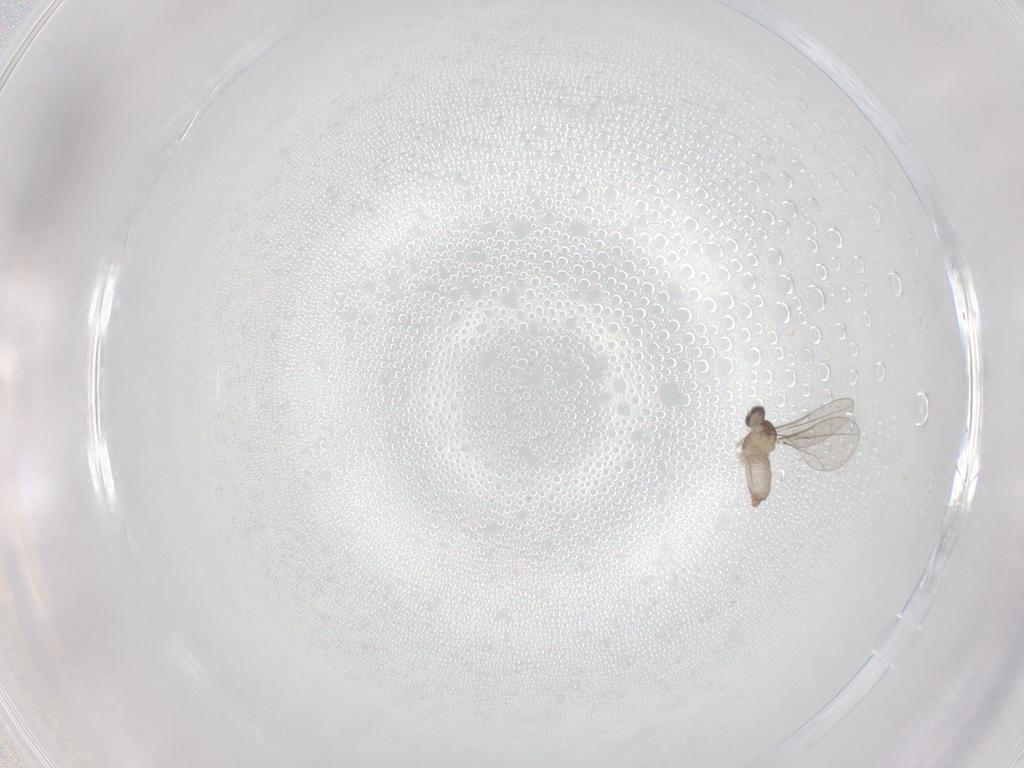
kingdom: Animalia
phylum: Arthropoda
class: Insecta
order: Diptera
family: Cecidomyiidae
